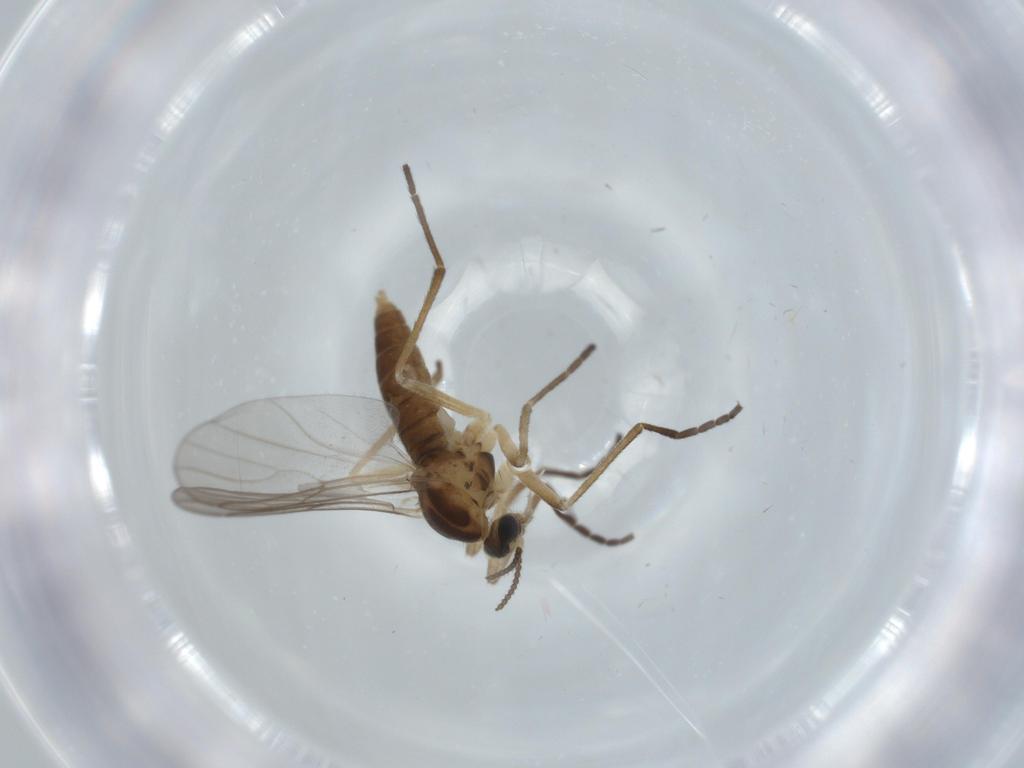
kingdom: Animalia
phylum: Arthropoda
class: Insecta
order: Diptera
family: Cecidomyiidae
